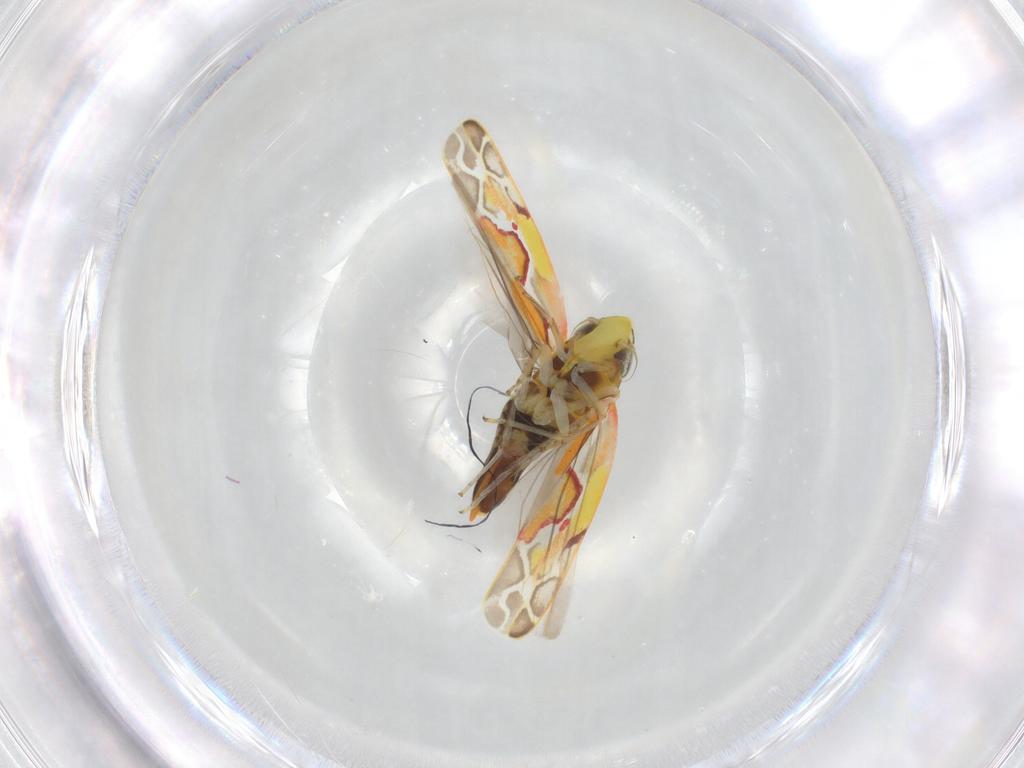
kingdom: Animalia
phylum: Arthropoda
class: Insecta
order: Hemiptera
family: Cicadellidae
